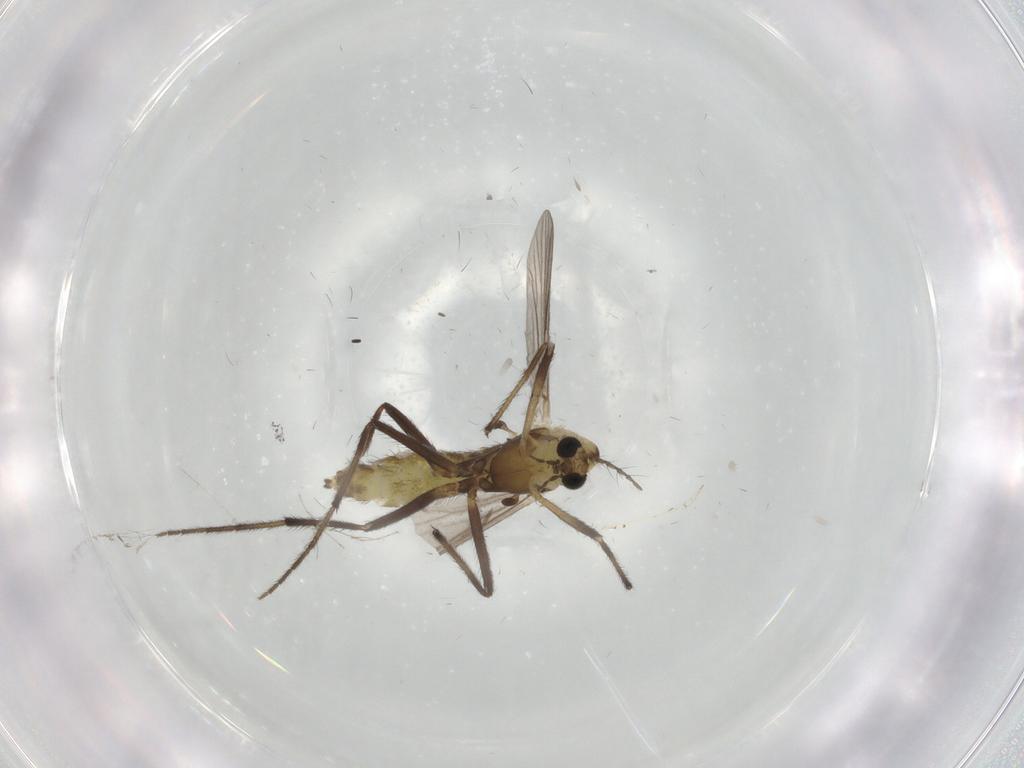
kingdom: Animalia
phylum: Arthropoda
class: Insecta
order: Diptera
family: Chironomidae
